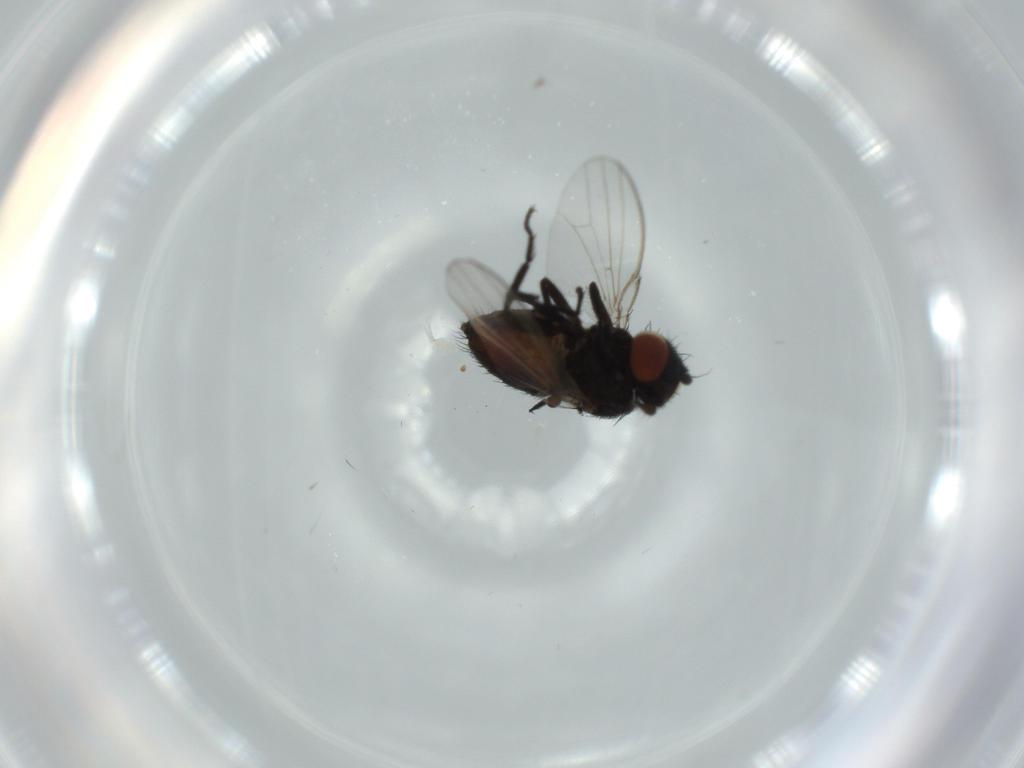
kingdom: Animalia
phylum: Arthropoda
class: Insecta
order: Diptera
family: Milichiidae
